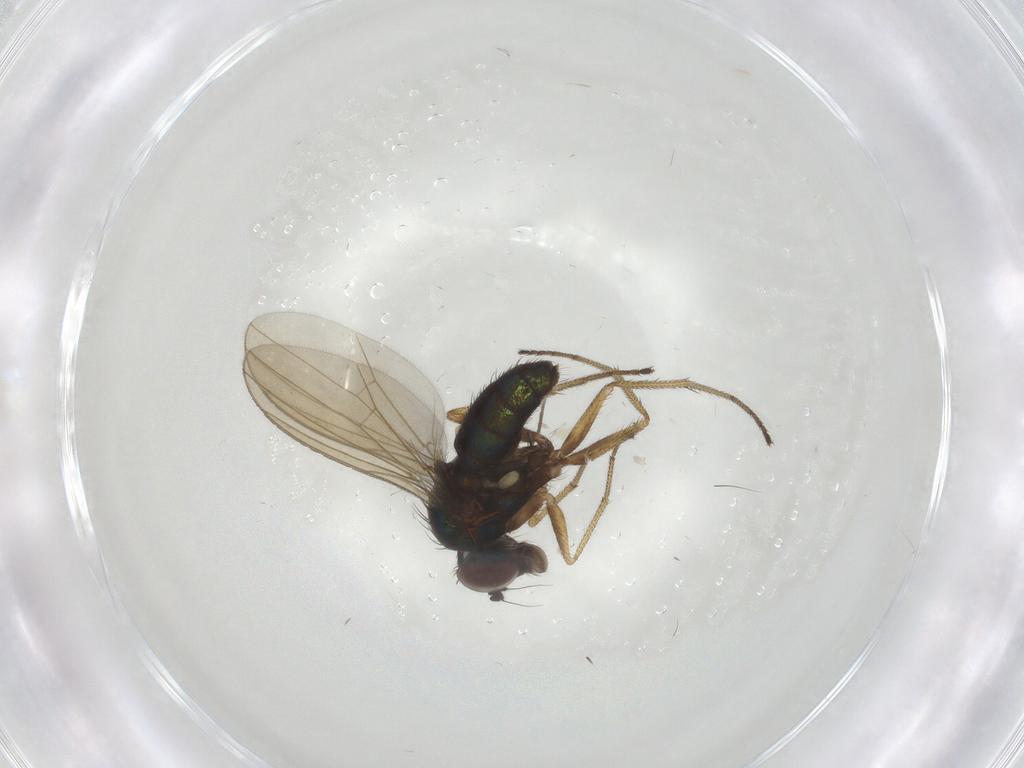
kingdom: Animalia
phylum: Arthropoda
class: Insecta
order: Diptera
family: Dolichopodidae
